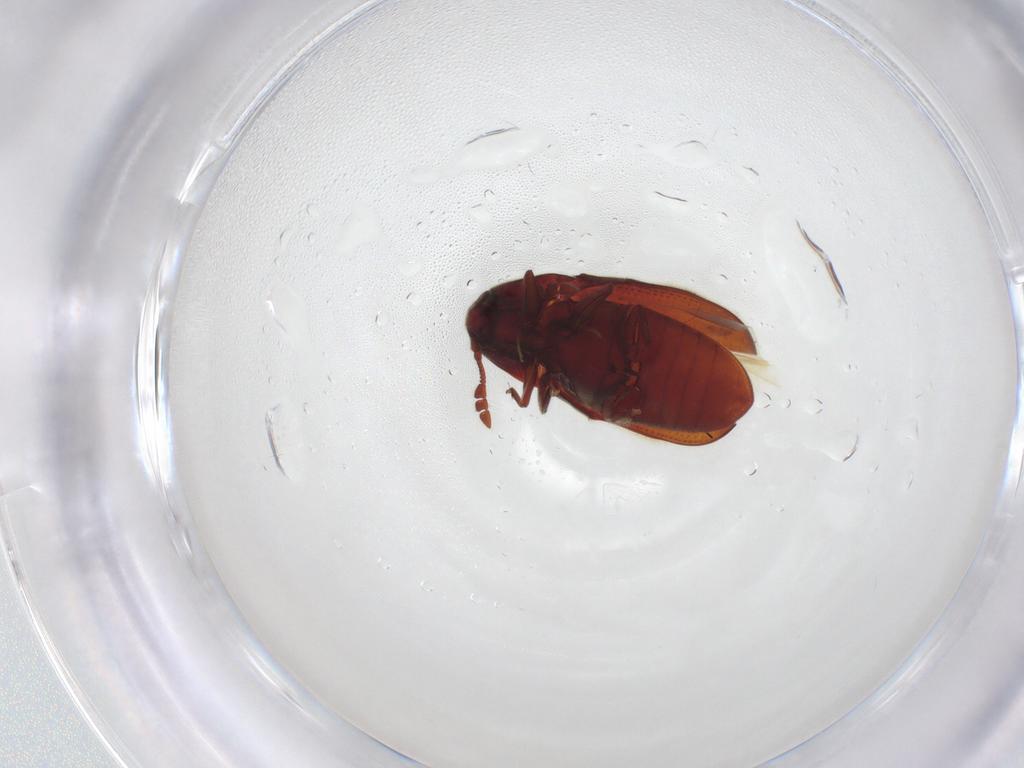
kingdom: Animalia
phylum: Arthropoda
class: Insecta
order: Coleoptera
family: Throscidae
